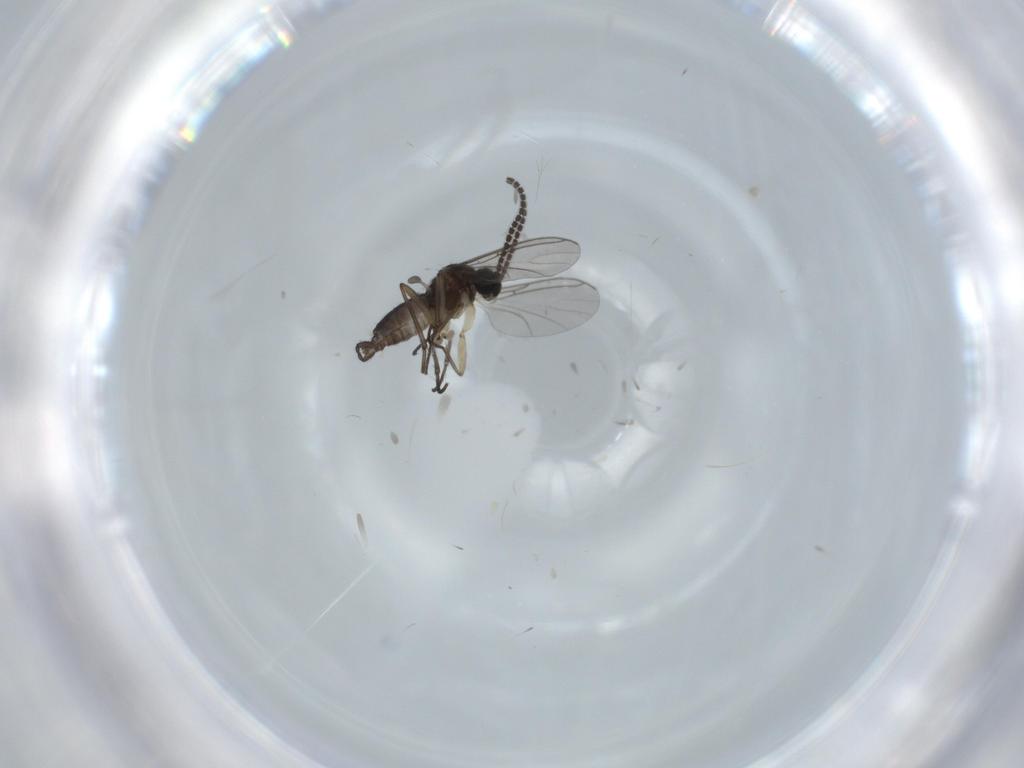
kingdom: Animalia
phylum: Arthropoda
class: Insecta
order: Diptera
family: Sciaridae
